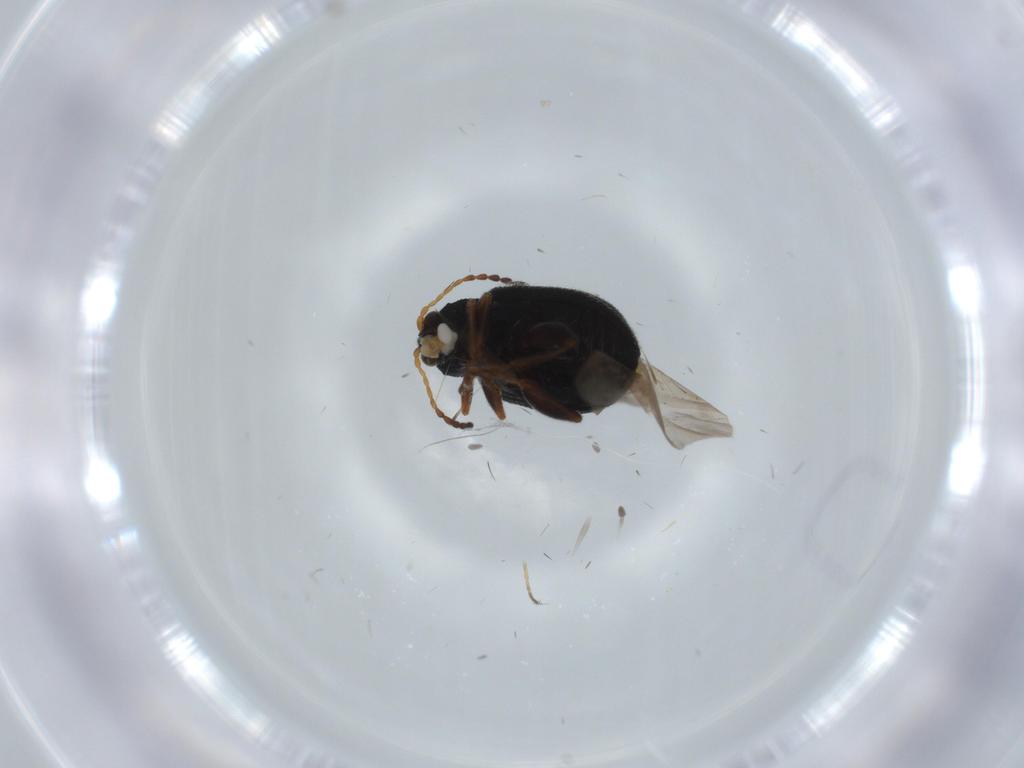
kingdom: Animalia
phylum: Arthropoda
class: Insecta
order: Coleoptera
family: Chrysomelidae
